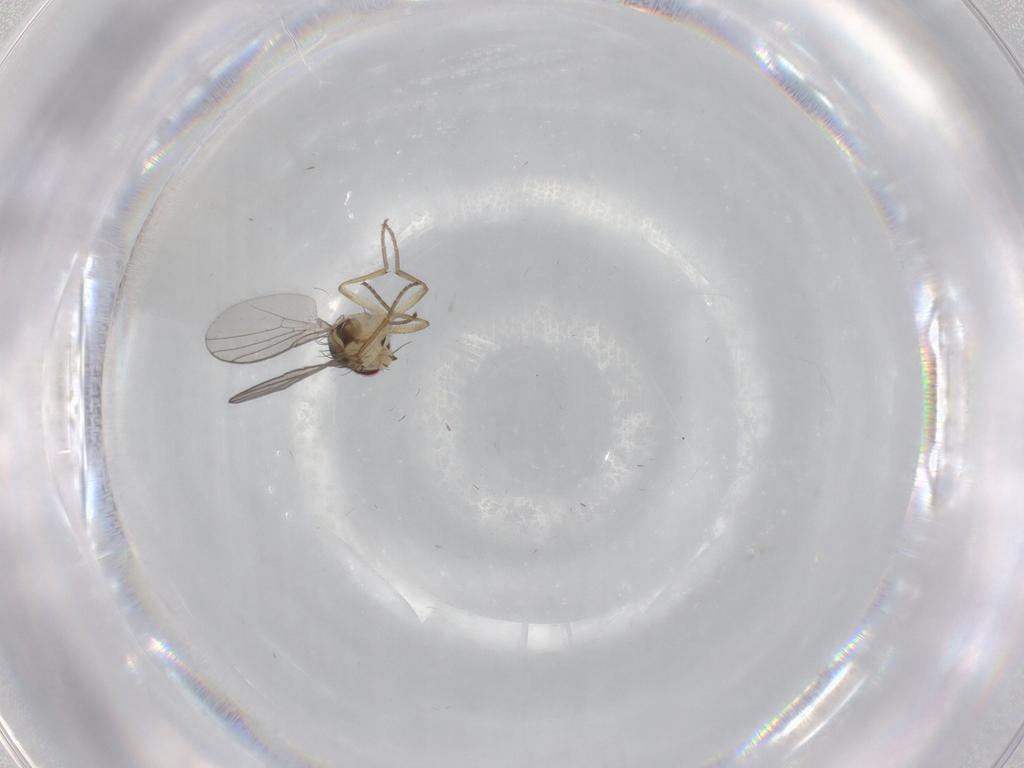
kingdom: Animalia
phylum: Arthropoda
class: Insecta
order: Diptera
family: Agromyzidae
